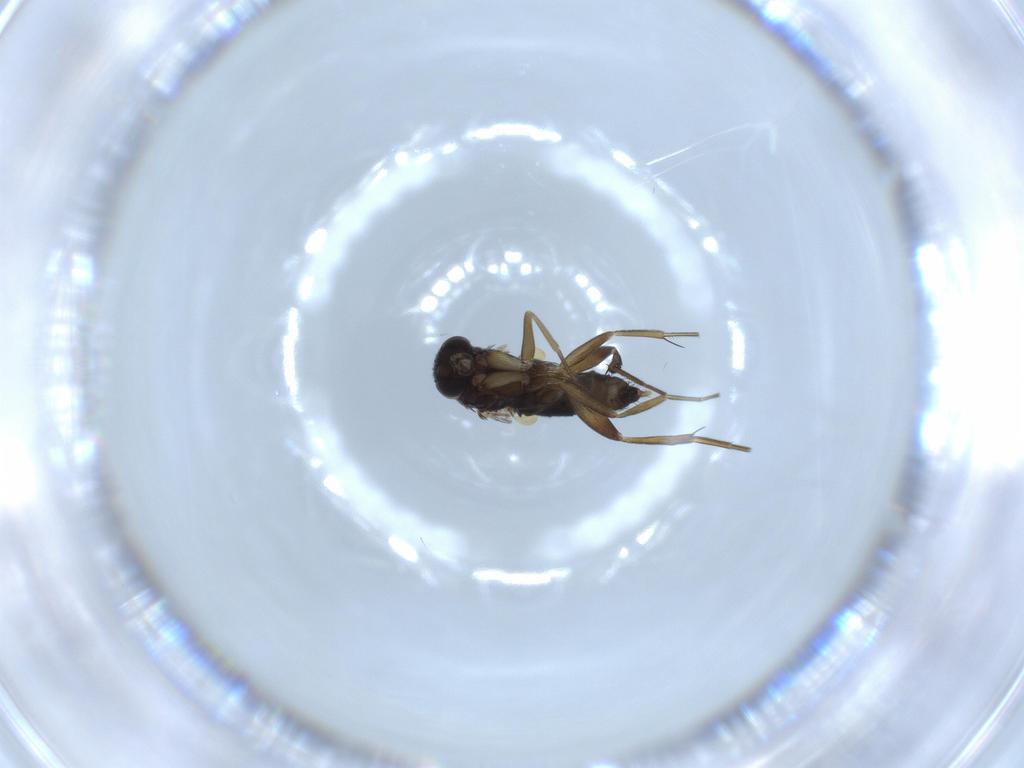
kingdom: Animalia
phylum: Arthropoda
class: Insecta
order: Diptera
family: Phoridae
